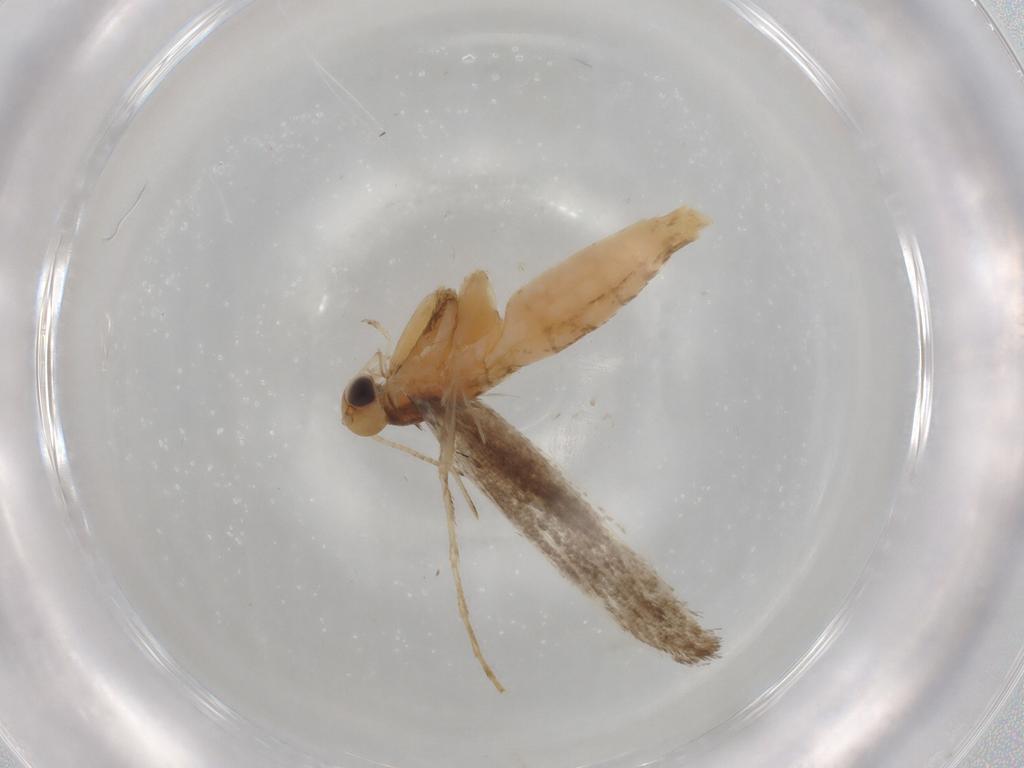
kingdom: Animalia
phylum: Arthropoda
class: Insecta
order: Lepidoptera
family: Gracillariidae
